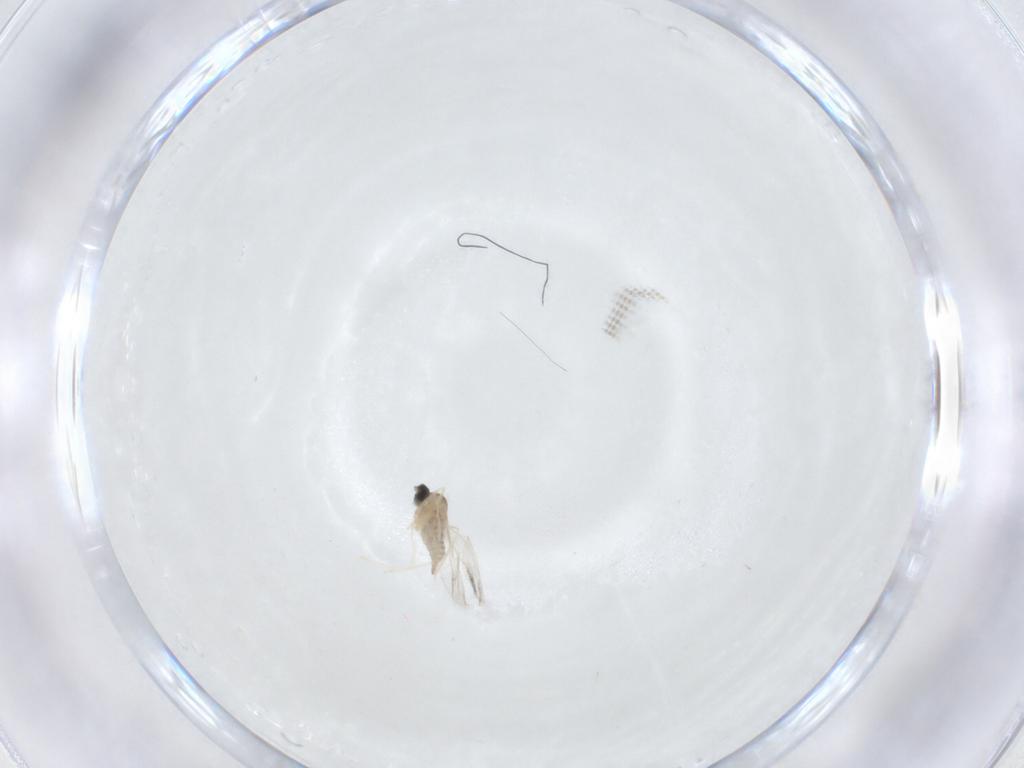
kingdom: Animalia
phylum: Arthropoda
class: Insecta
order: Diptera
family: Cecidomyiidae
